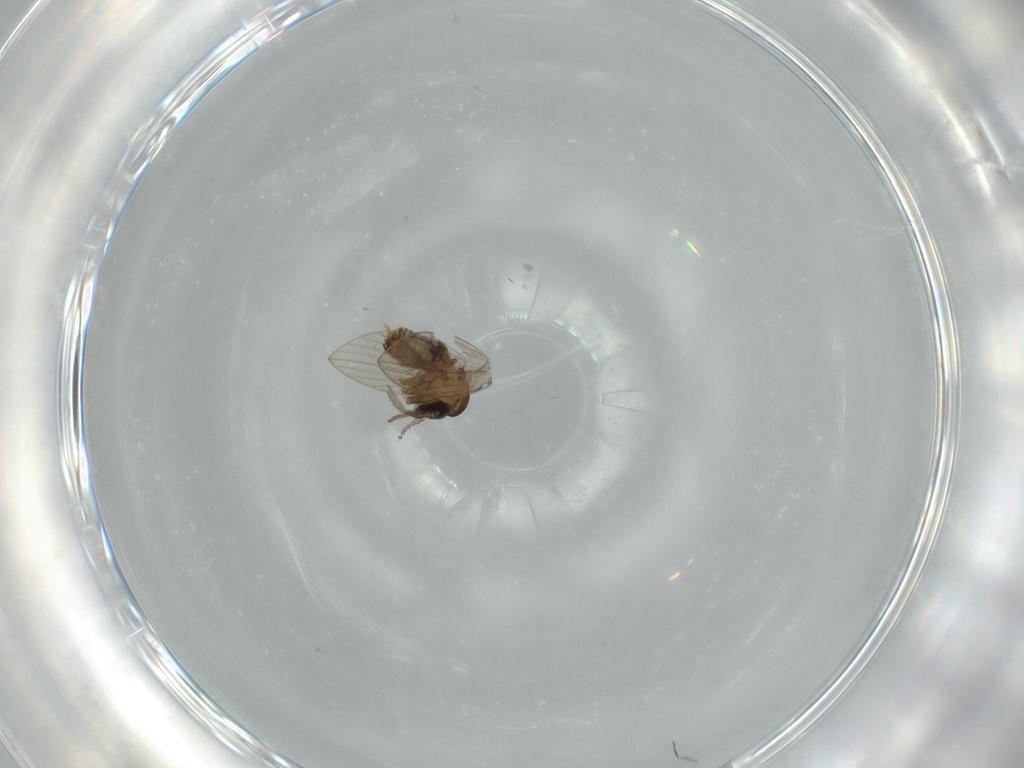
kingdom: Animalia
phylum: Arthropoda
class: Insecta
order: Diptera
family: Psychodidae
